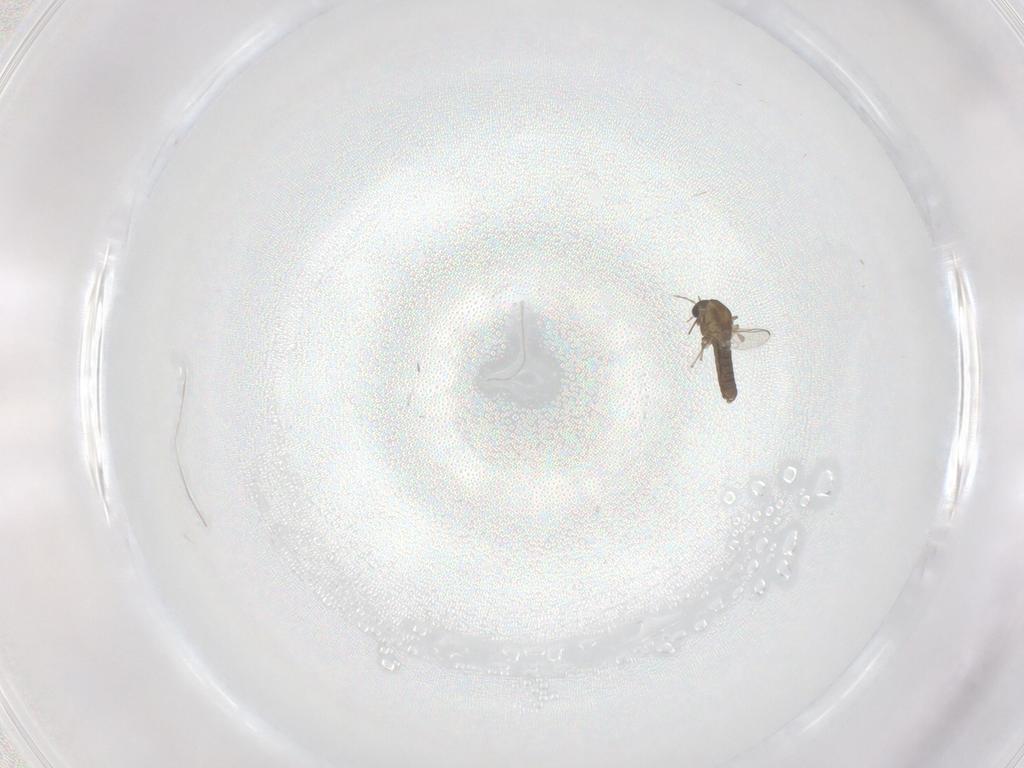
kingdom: Animalia
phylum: Arthropoda
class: Insecta
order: Diptera
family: Chironomidae
